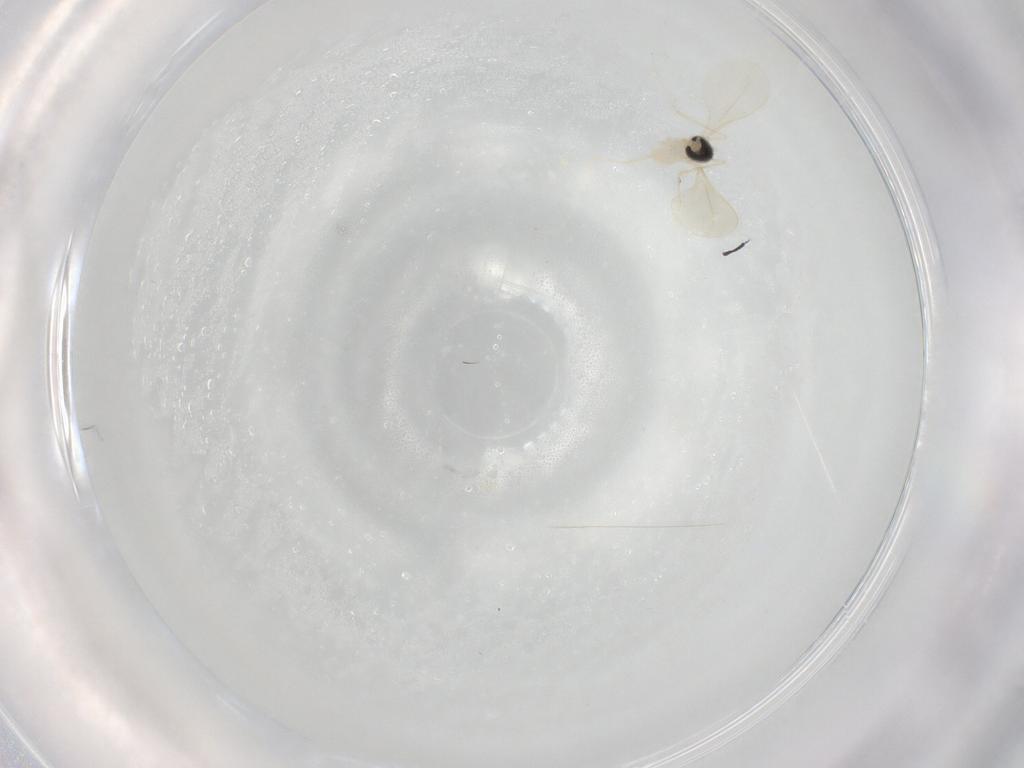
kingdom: Animalia
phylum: Arthropoda
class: Insecta
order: Diptera
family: Cecidomyiidae
